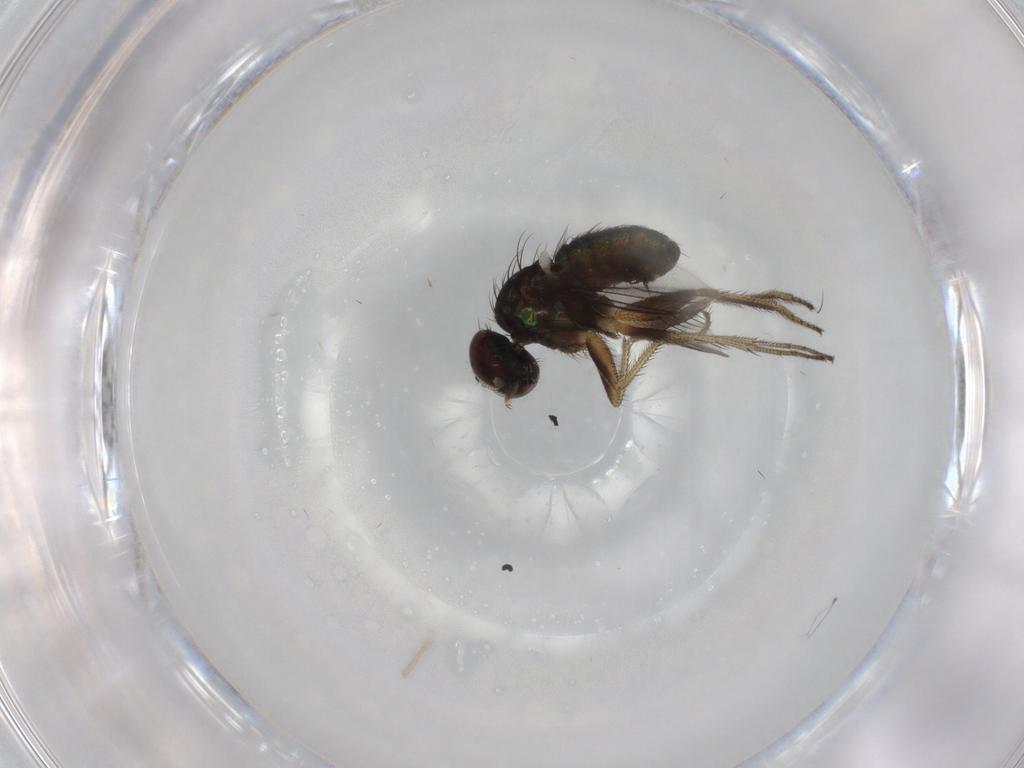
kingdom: Animalia
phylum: Arthropoda
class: Insecta
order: Diptera
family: Dolichopodidae
